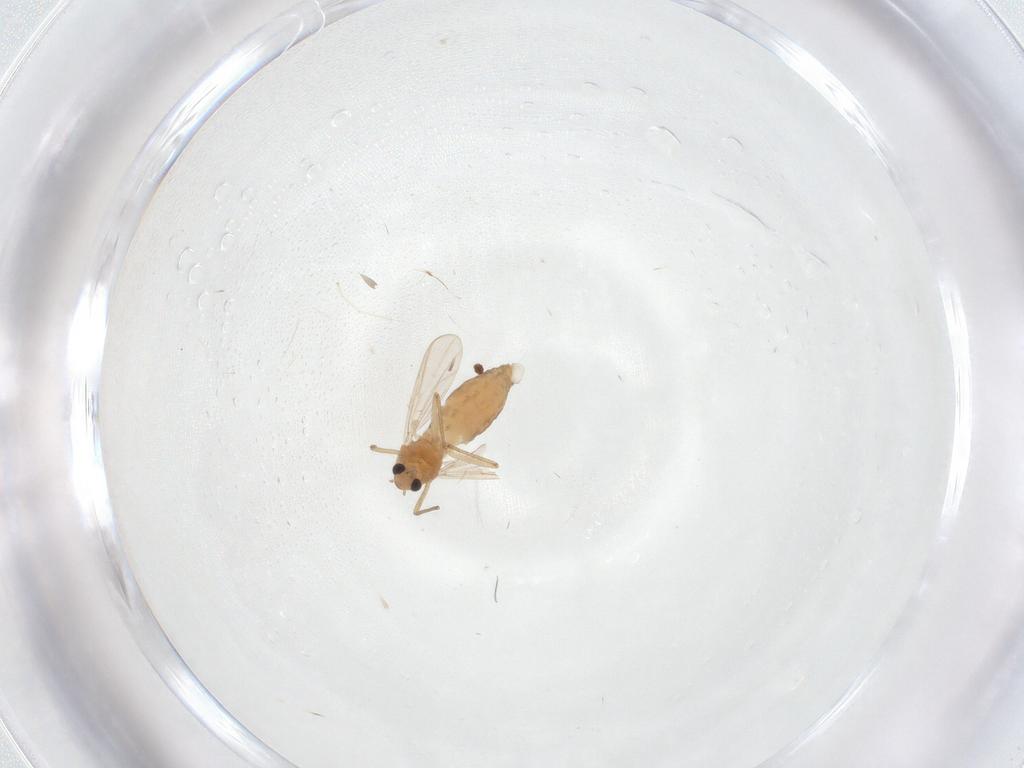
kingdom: Animalia
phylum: Arthropoda
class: Insecta
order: Diptera
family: Chironomidae
